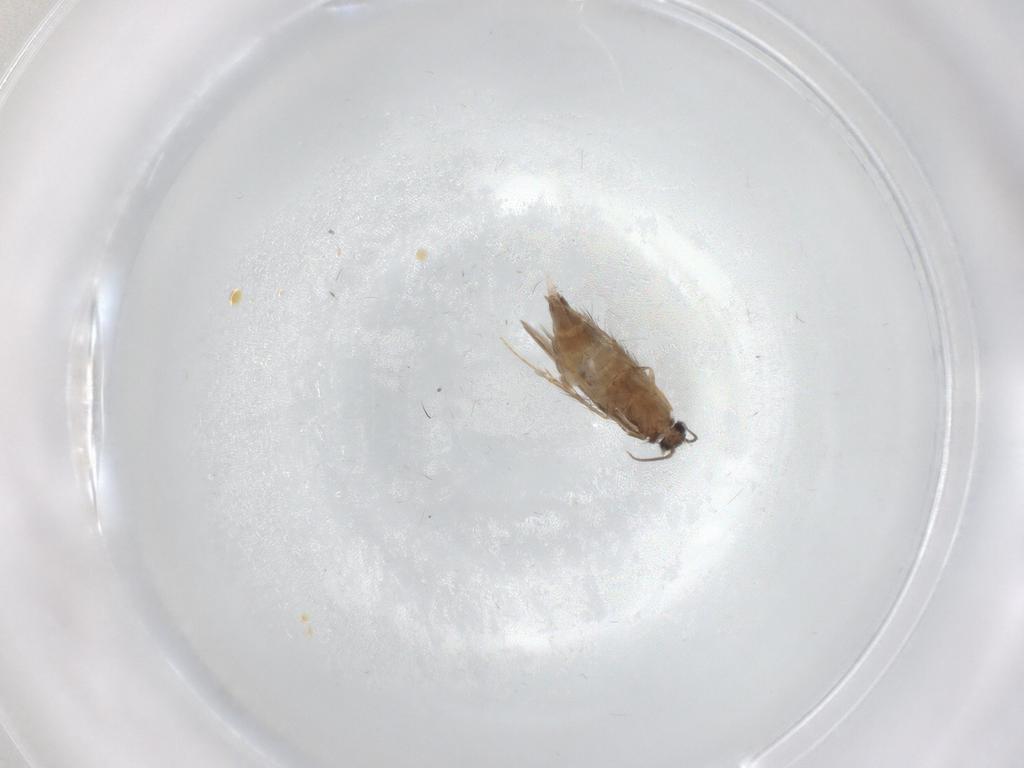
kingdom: Animalia
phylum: Arthropoda
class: Insecta
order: Trichoptera
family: Hydroptilidae
